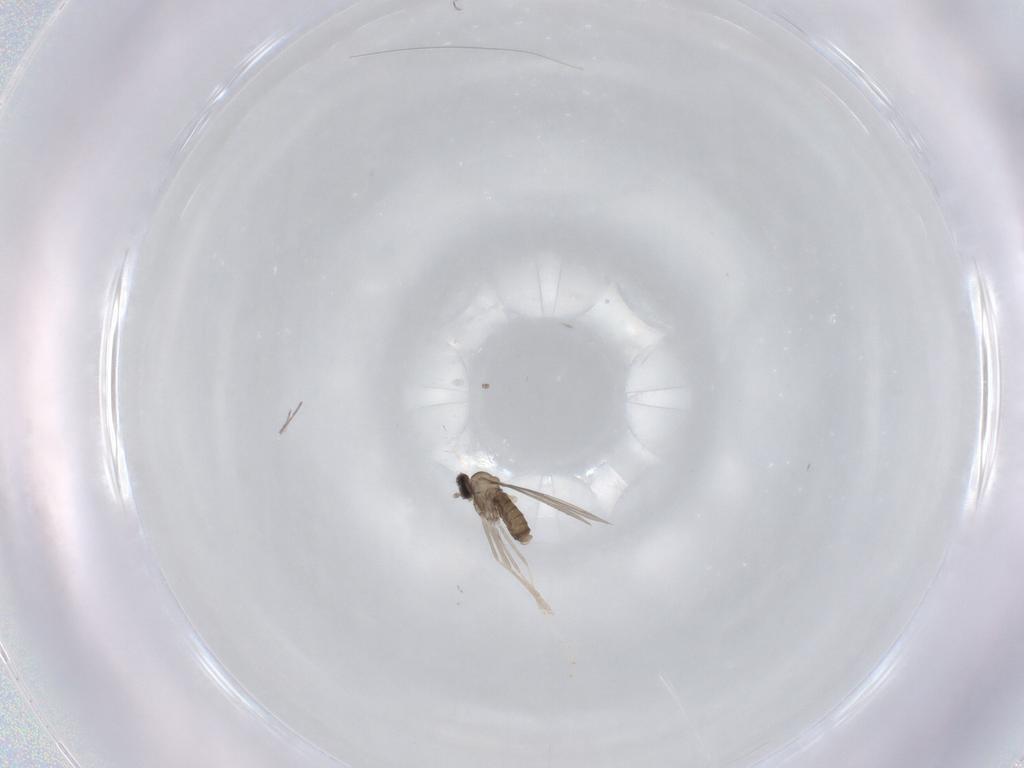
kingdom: Animalia
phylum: Arthropoda
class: Insecta
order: Diptera
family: Cecidomyiidae
